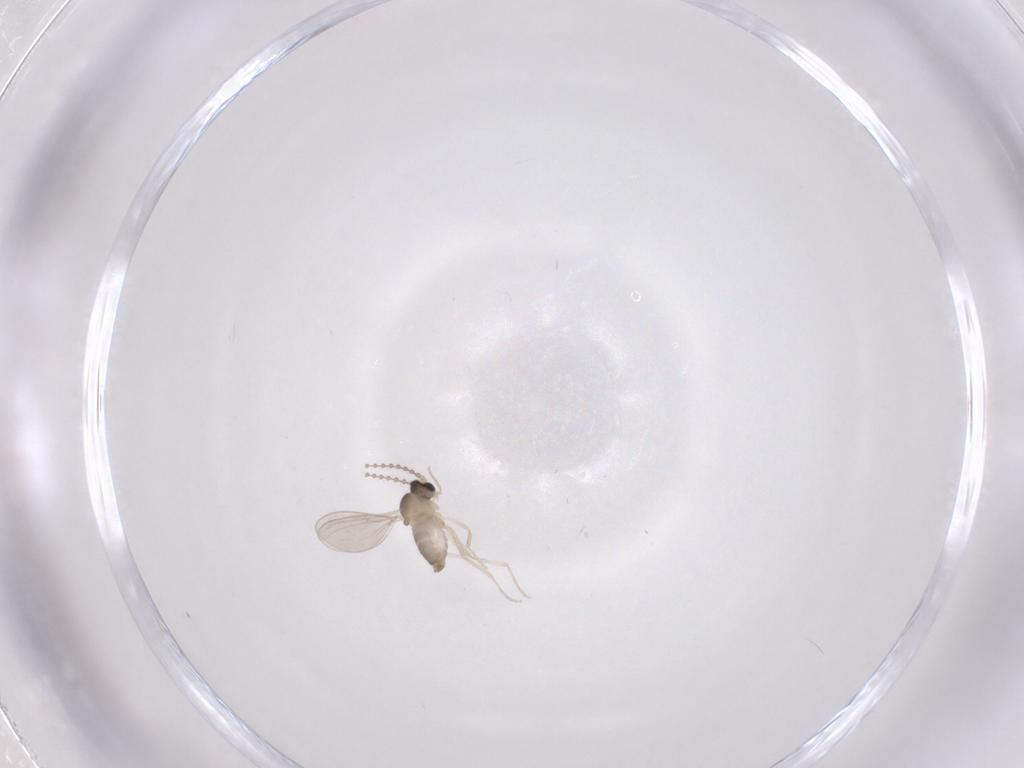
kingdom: Animalia
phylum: Arthropoda
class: Insecta
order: Diptera
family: Cecidomyiidae
